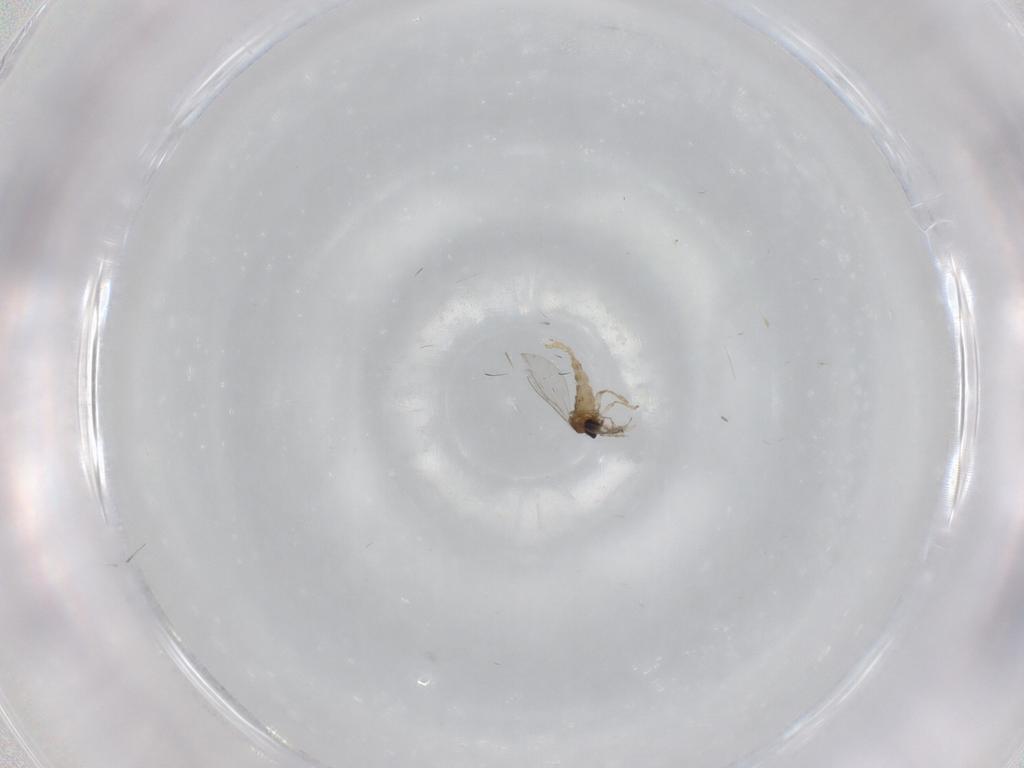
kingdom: Animalia
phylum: Arthropoda
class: Insecta
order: Diptera
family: Cecidomyiidae
